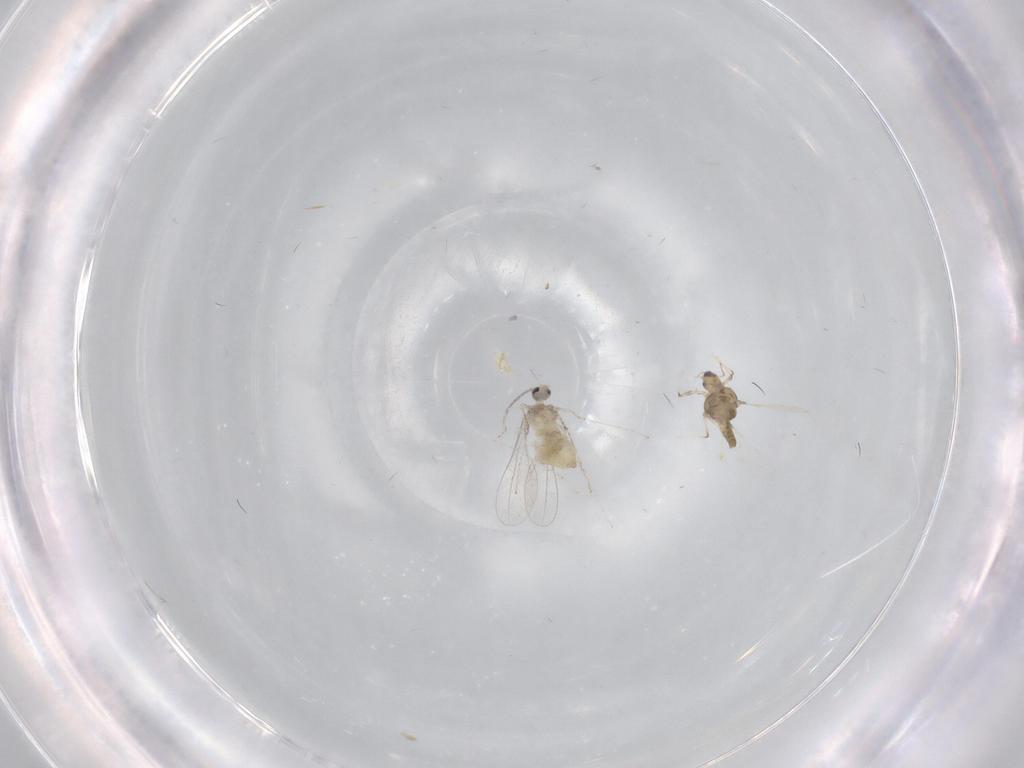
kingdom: Animalia
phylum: Arthropoda
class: Insecta
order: Diptera
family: Chironomidae
